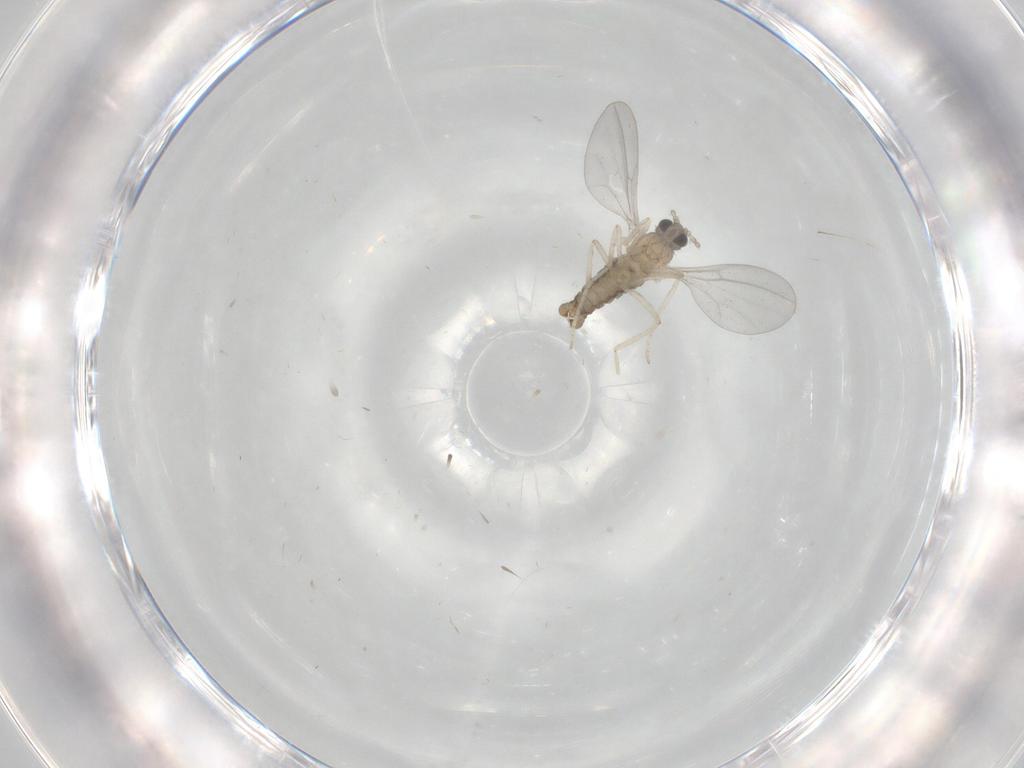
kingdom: Animalia
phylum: Arthropoda
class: Insecta
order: Diptera
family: Cecidomyiidae
